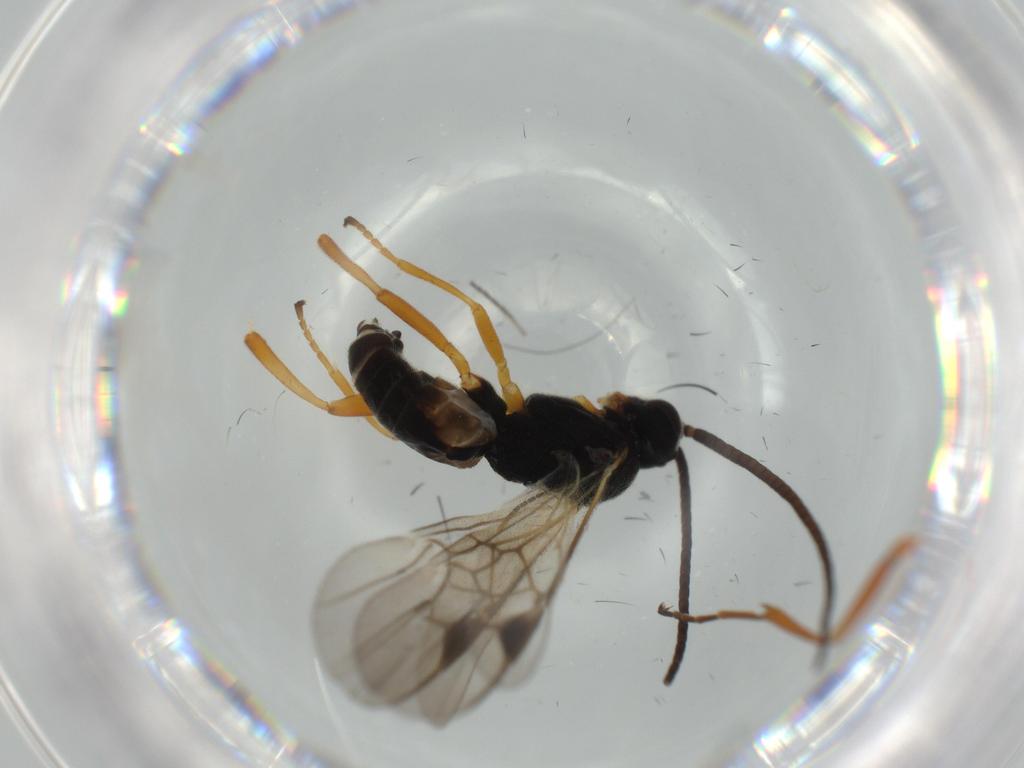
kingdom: Animalia
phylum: Arthropoda
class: Insecta
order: Hymenoptera
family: Braconidae
